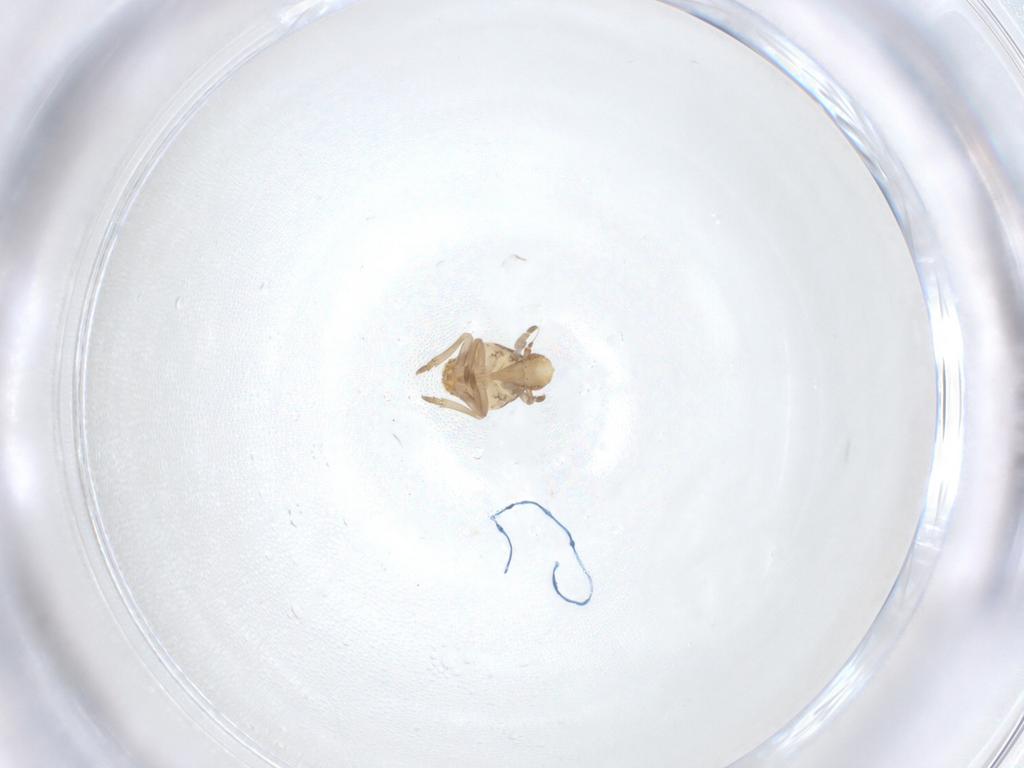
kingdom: Animalia
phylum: Arthropoda
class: Insecta
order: Hemiptera
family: Flatidae
